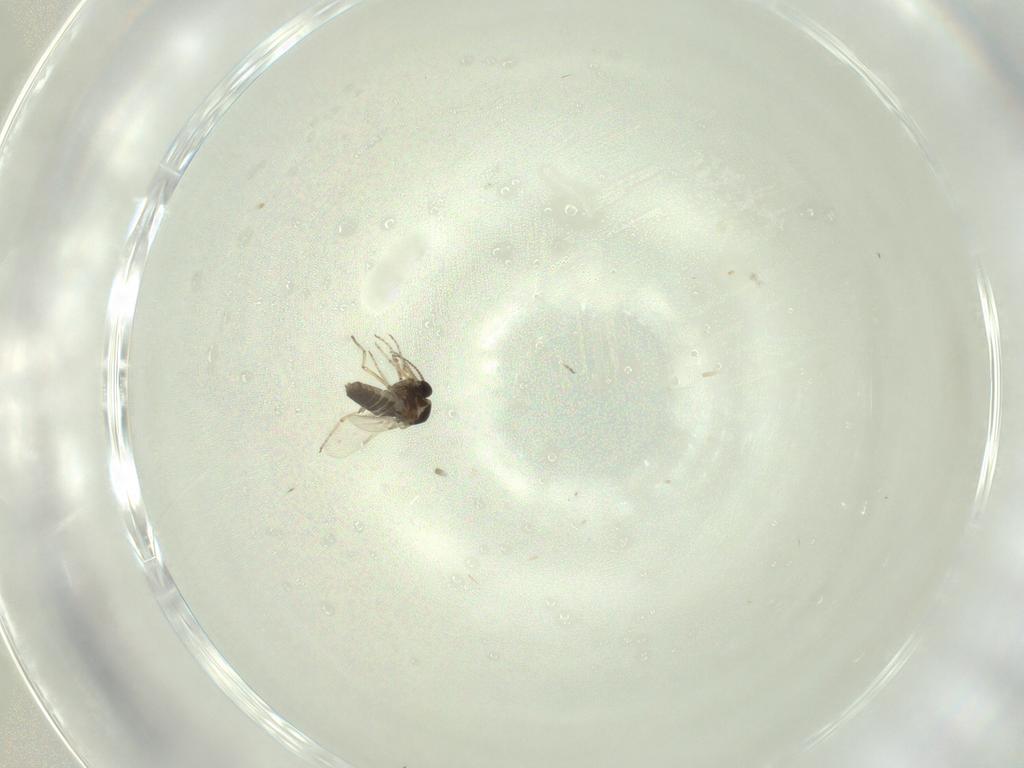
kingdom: Animalia
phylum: Arthropoda
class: Insecta
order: Diptera
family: Ceratopogonidae
